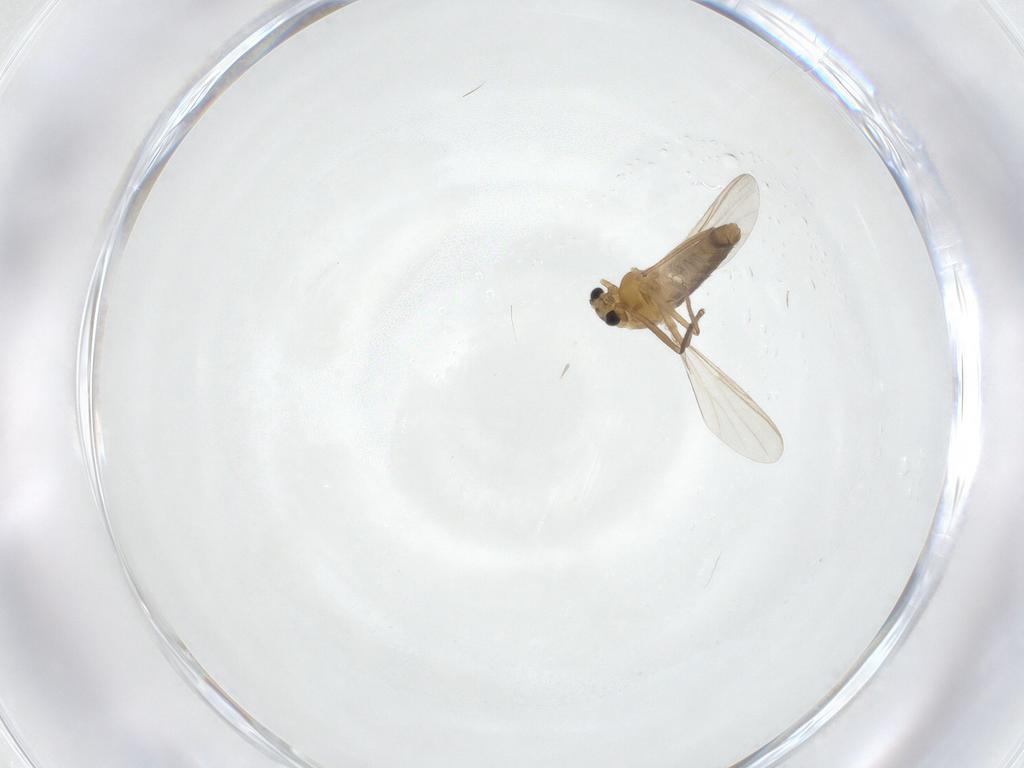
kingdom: Animalia
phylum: Arthropoda
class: Insecta
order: Diptera
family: Chironomidae
